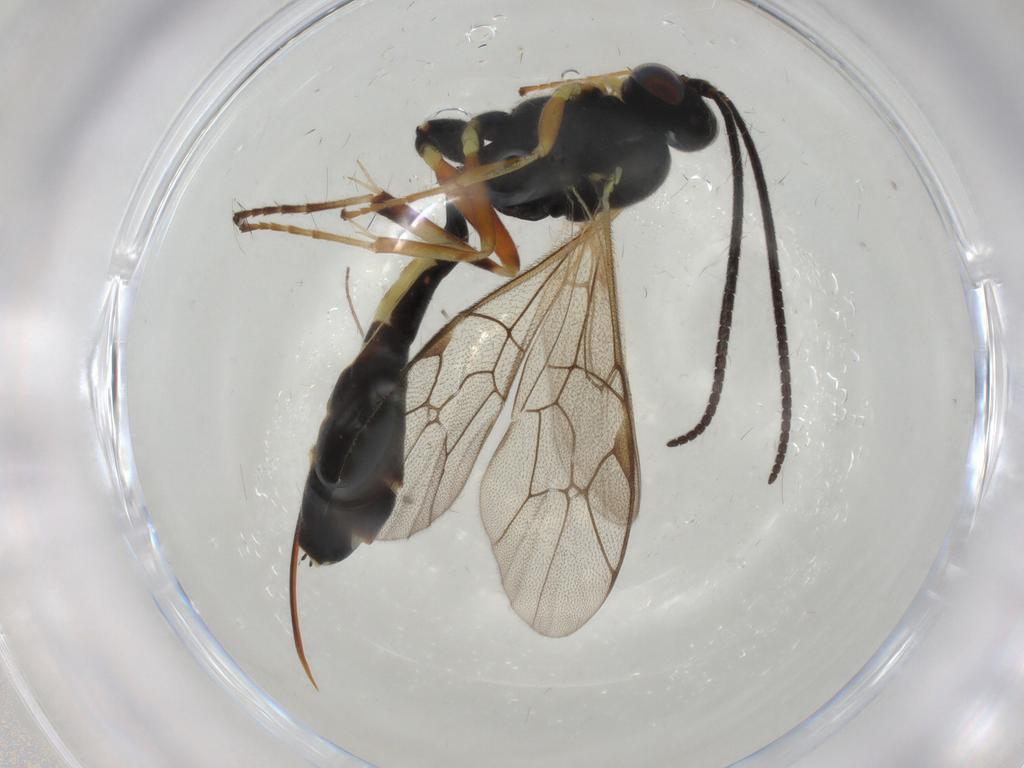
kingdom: Animalia
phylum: Arthropoda
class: Insecta
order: Hymenoptera
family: Ichneumonidae
